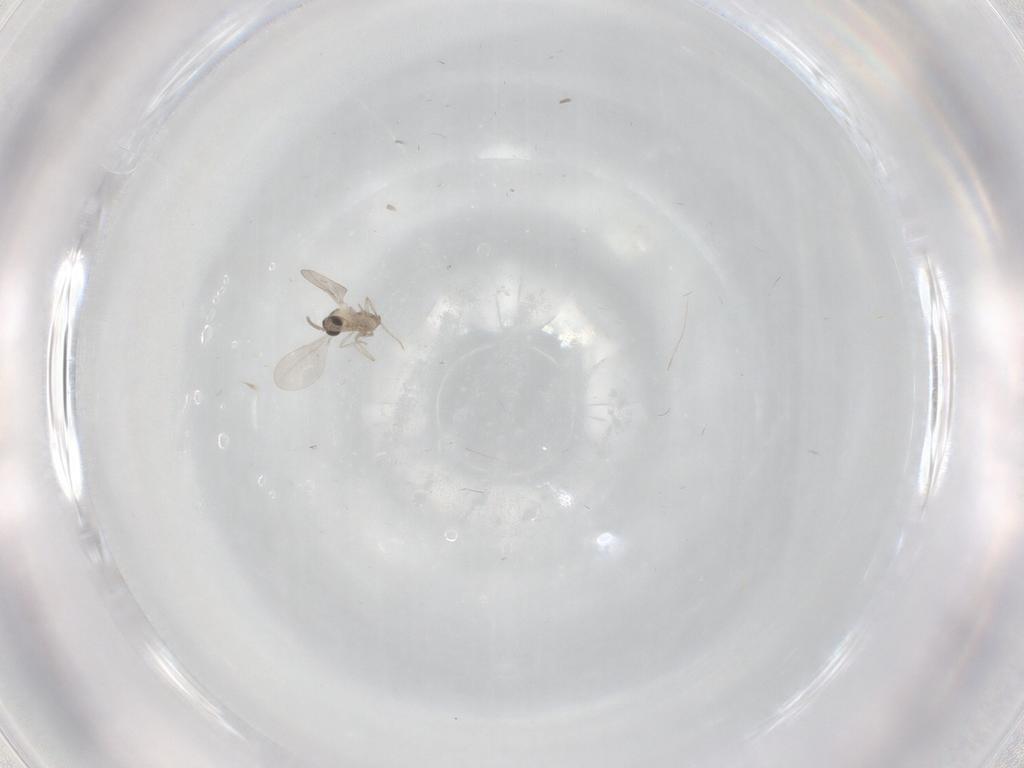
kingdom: Animalia
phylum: Arthropoda
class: Insecta
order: Diptera
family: Cecidomyiidae
